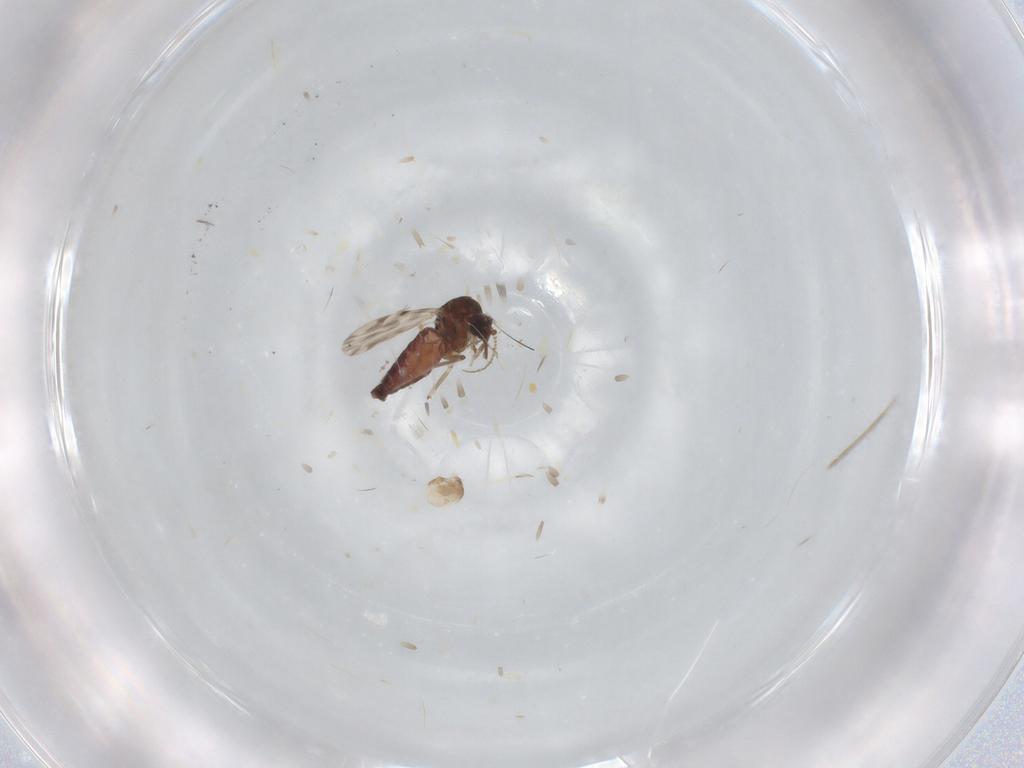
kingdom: Animalia
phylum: Arthropoda
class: Insecta
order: Diptera
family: Ceratopogonidae
